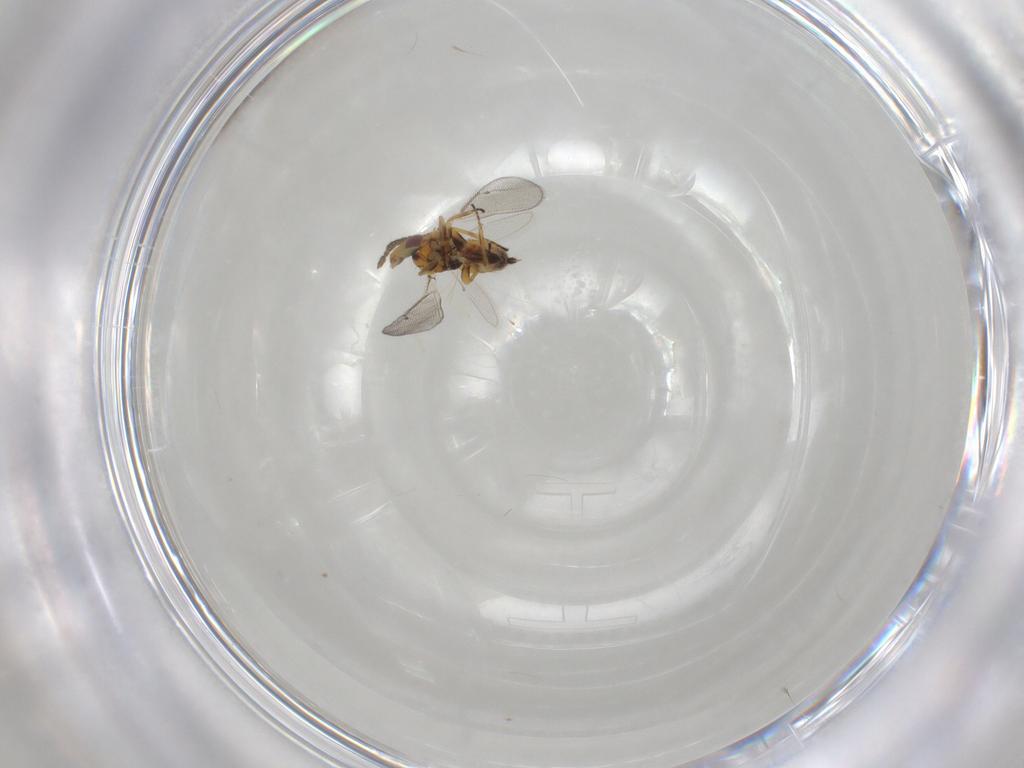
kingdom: Animalia
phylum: Arthropoda
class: Insecta
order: Hymenoptera
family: Eulophidae
